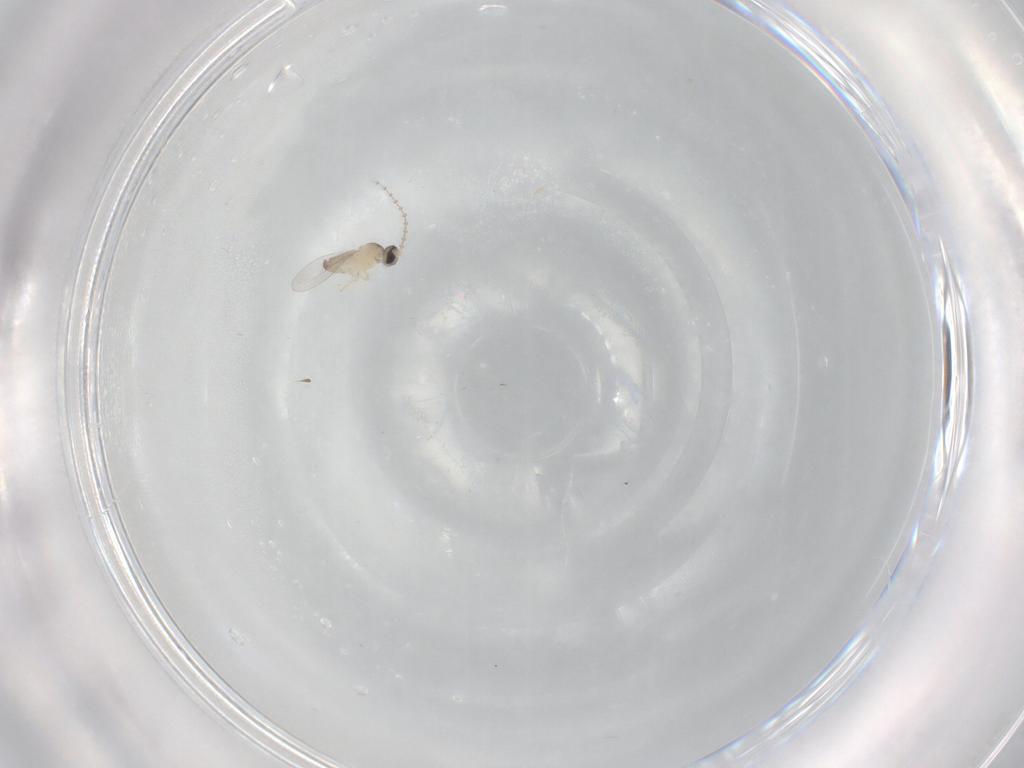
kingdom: Animalia
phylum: Arthropoda
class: Insecta
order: Diptera
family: Cecidomyiidae
